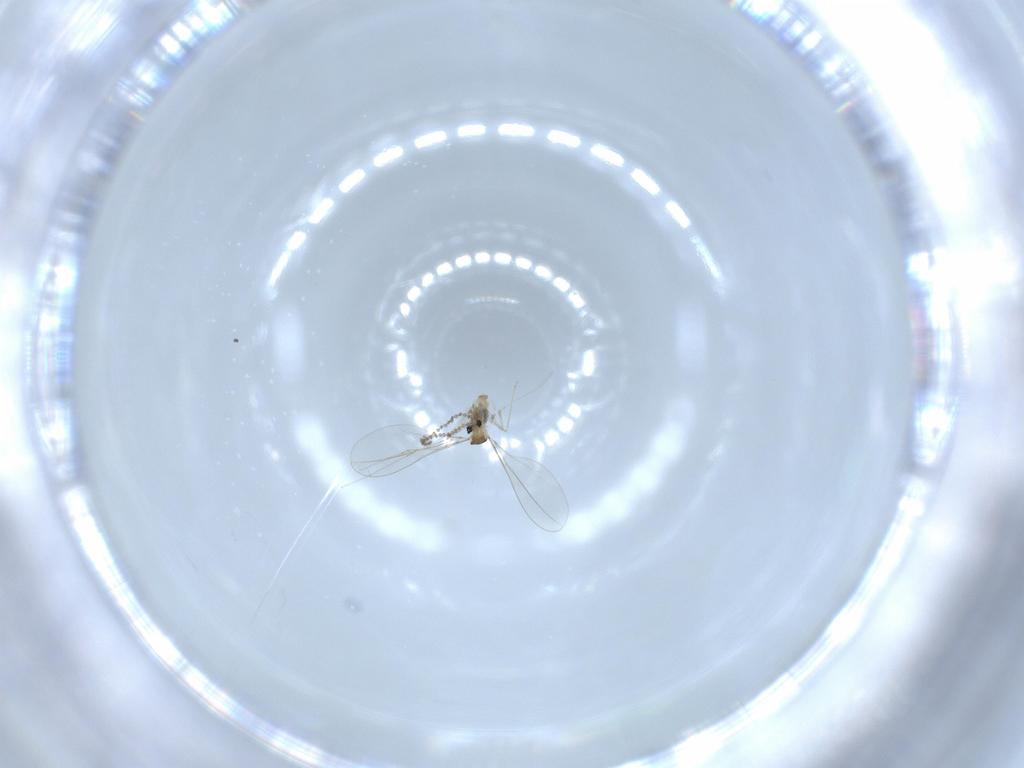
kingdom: Animalia
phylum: Arthropoda
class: Insecta
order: Diptera
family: Cecidomyiidae
